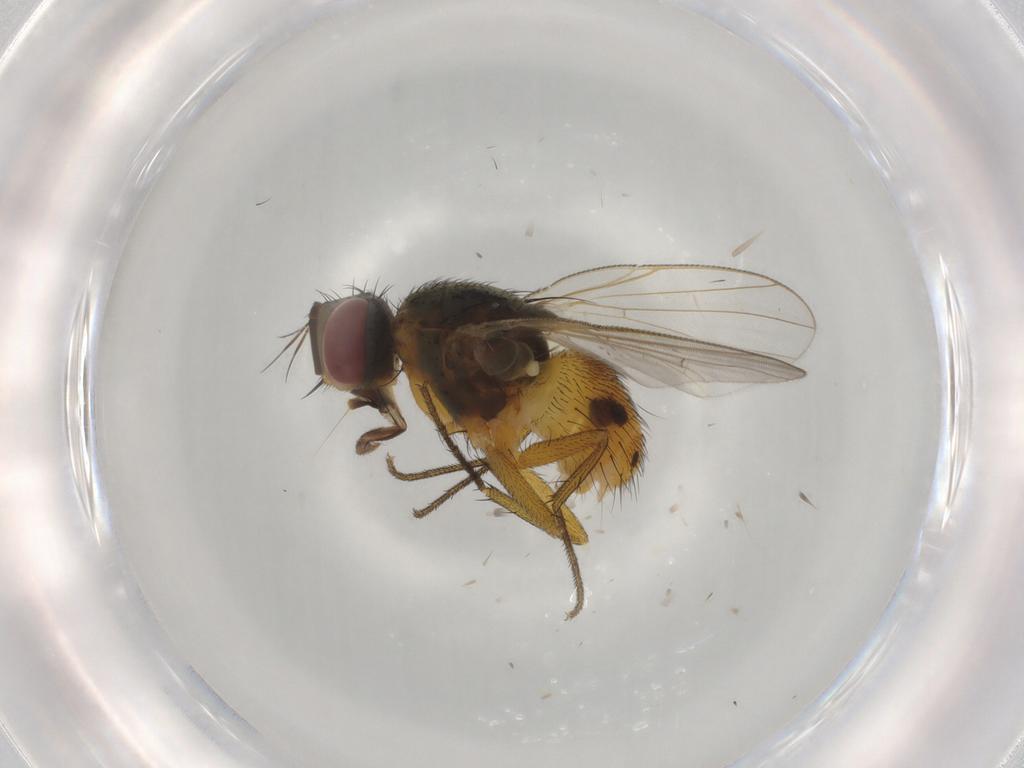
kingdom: Animalia
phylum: Arthropoda
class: Insecta
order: Diptera
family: Muscidae
